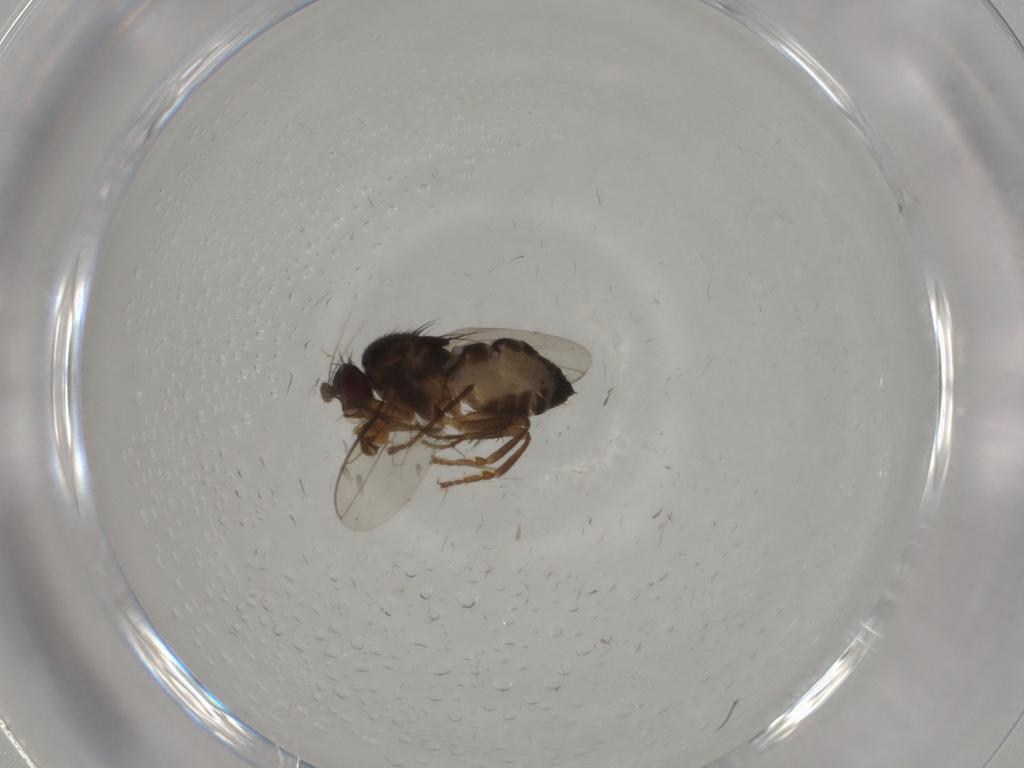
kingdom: Animalia
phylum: Arthropoda
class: Insecta
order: Diptera
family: Sphaeroceridae
